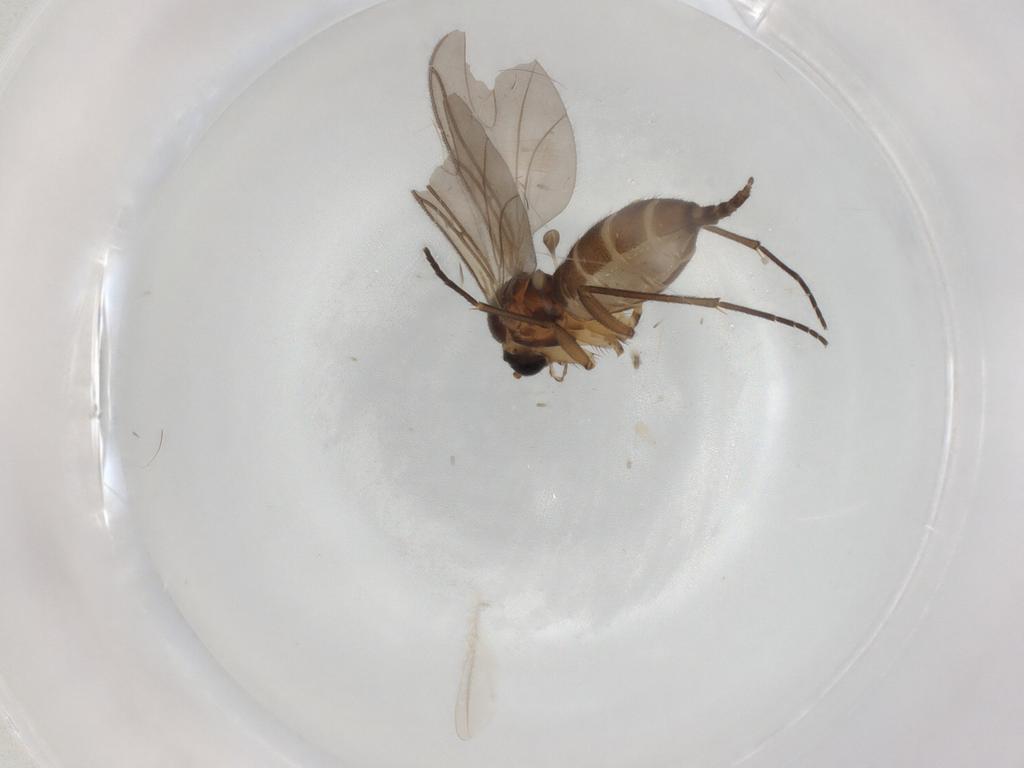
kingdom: Animalia
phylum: Arthropoda
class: Insecta
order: Diptera
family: Sciaridae
